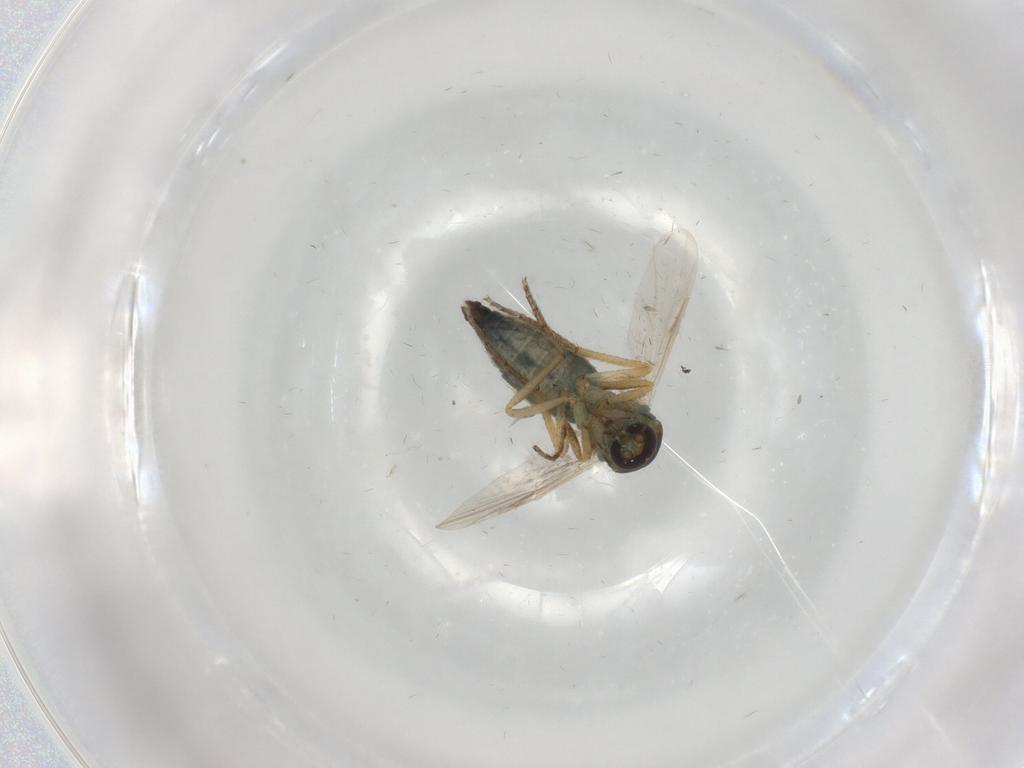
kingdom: Animalia
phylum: Arthropoda
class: Insecta
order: Diptera
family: Ceratopogonidae
